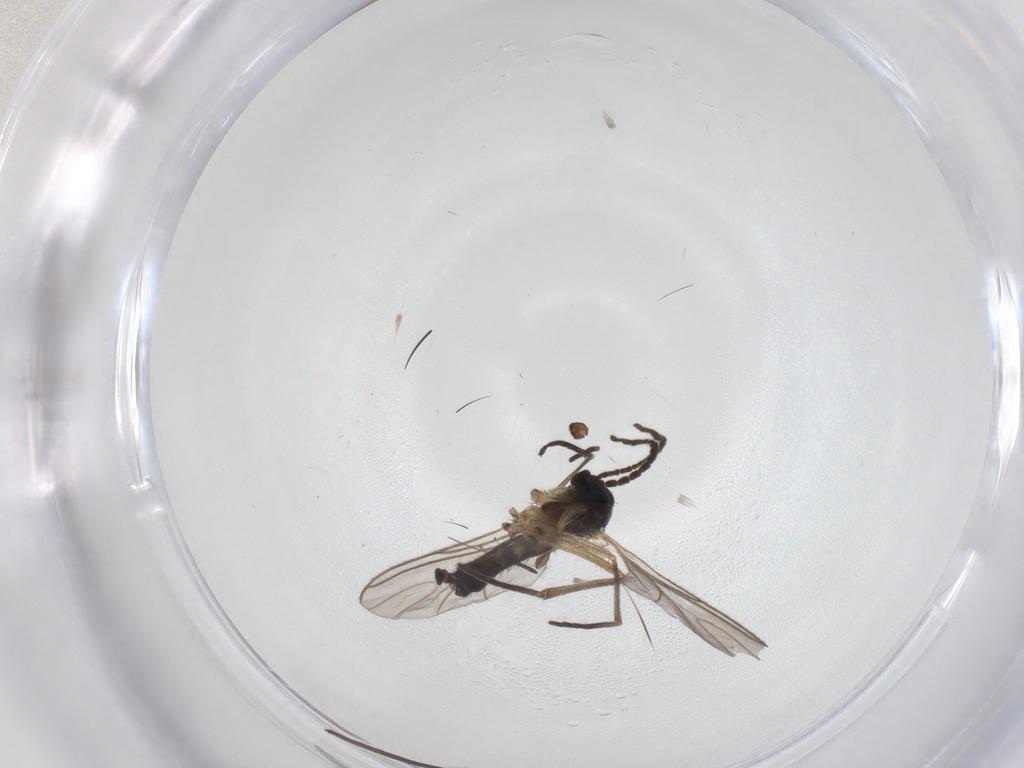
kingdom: Animalia
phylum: Arthropoda
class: Insecta
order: Diptera
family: Sciaridae
